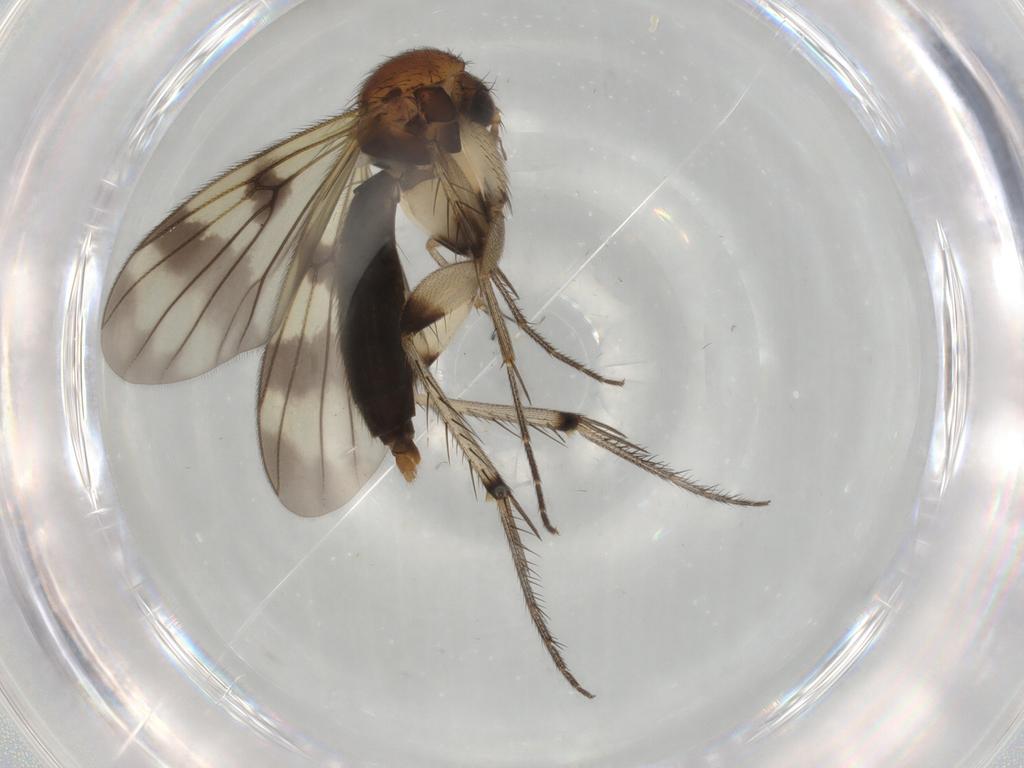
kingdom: Animalia
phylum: Arthropoda
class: Insecta
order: Diptera
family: Mycetophilidae
